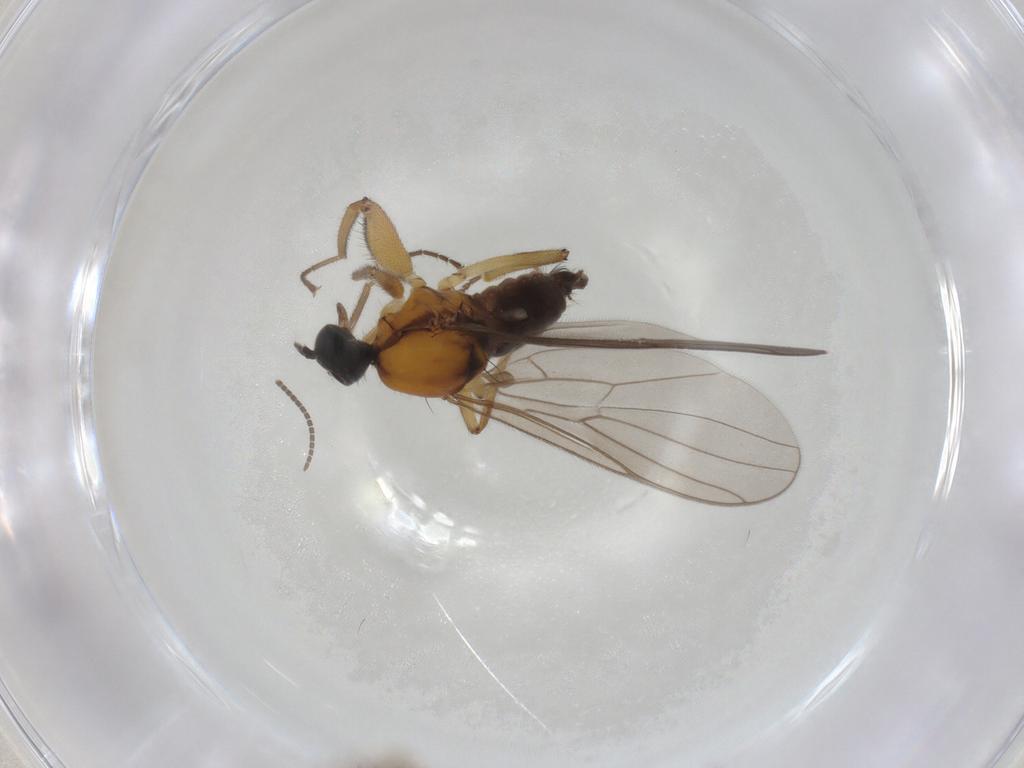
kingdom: Animalia
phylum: Arthropoda
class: Insecta
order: Diptera
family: Hybotidae
